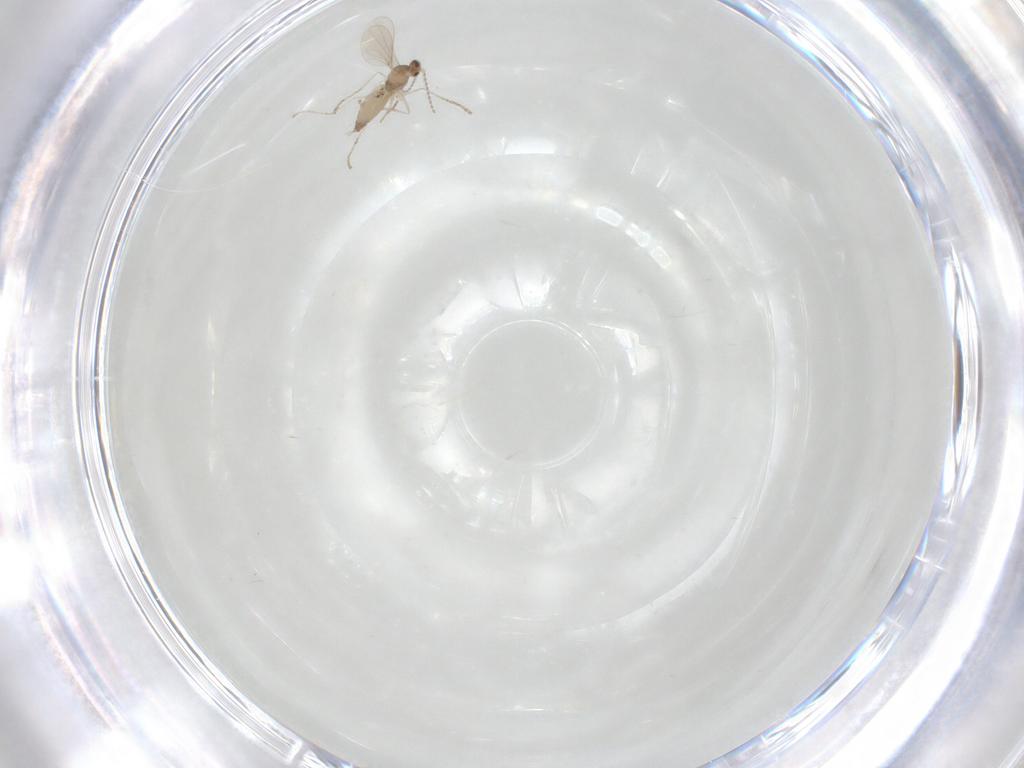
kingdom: Animalia
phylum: Arthropoda
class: Insecta
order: Diptera
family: Cecidomyiidae
